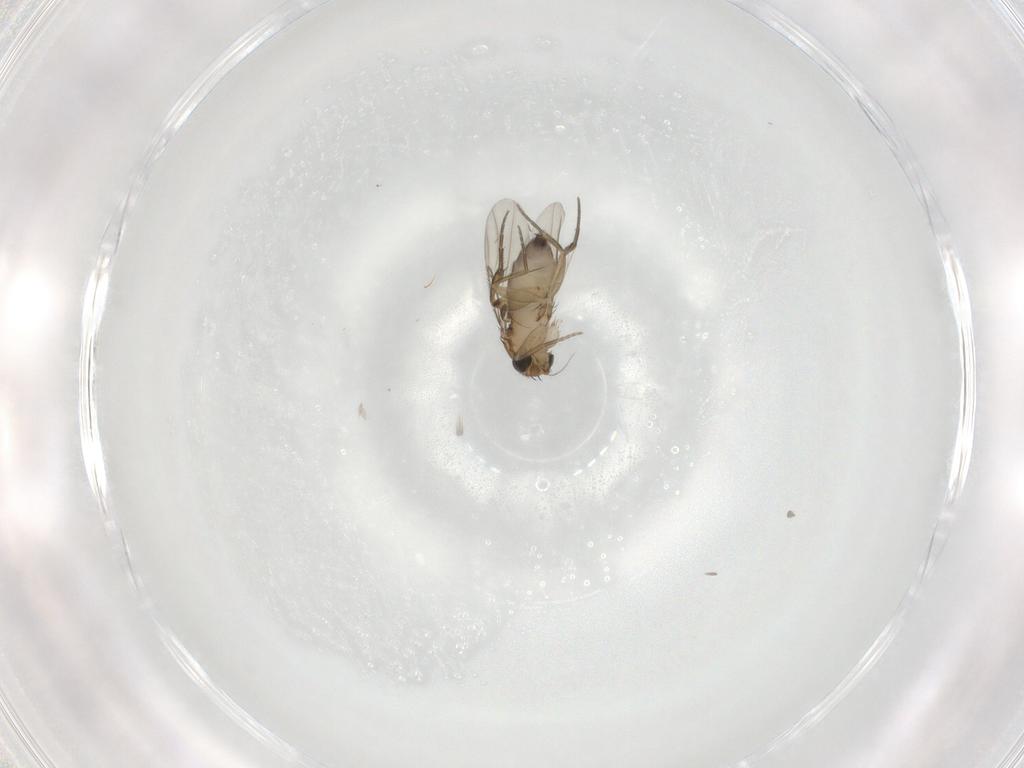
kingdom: Animalia
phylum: Arthropoda
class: Insecta
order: Diptera
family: Phoridae
